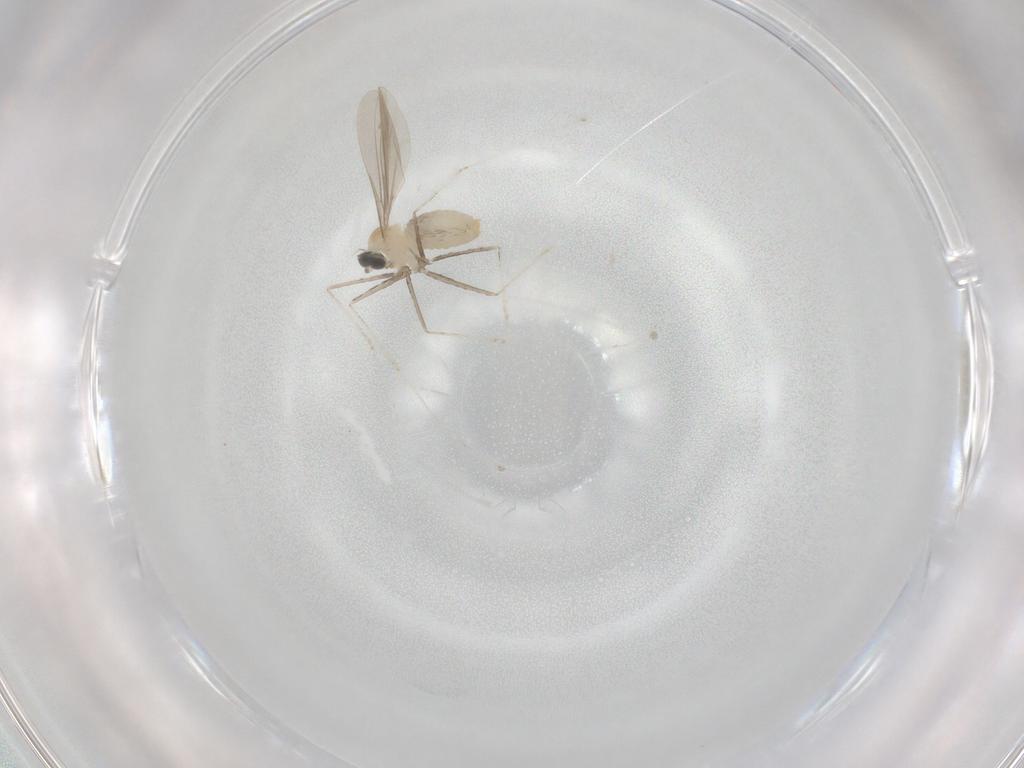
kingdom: Animalia
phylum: Arthropoda
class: Insecta
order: Diptera
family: Cecidomyiidae
